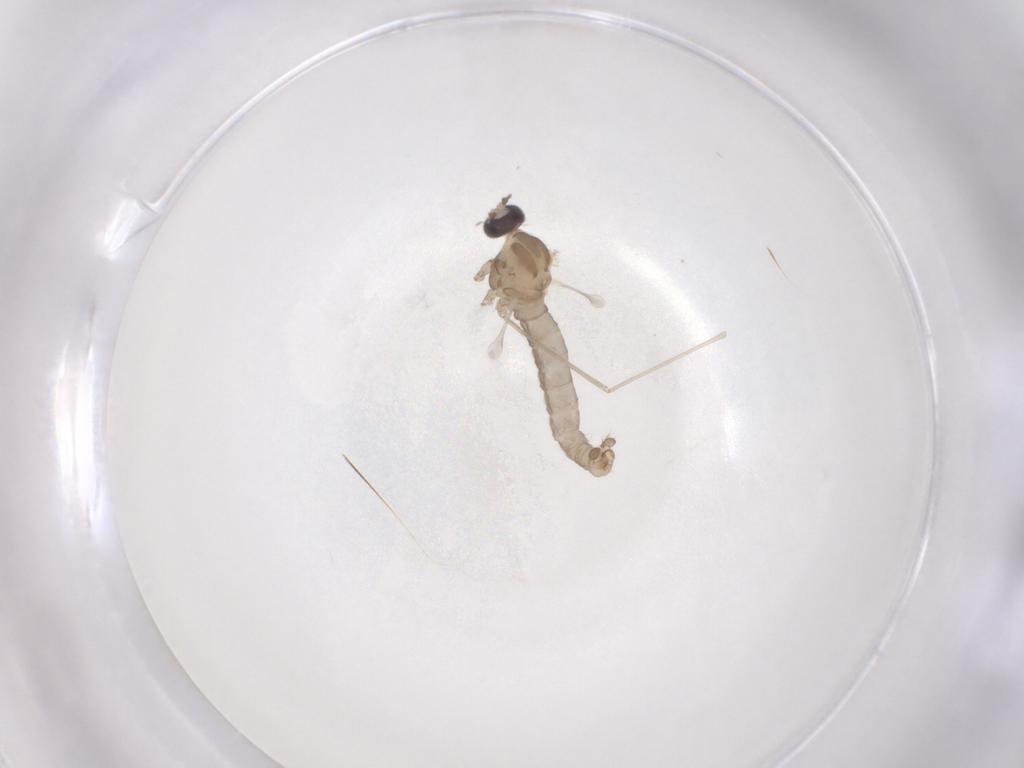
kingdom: Animalia
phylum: Arthropoda
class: Insecta
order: Diptera
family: Cecidomyiidae
